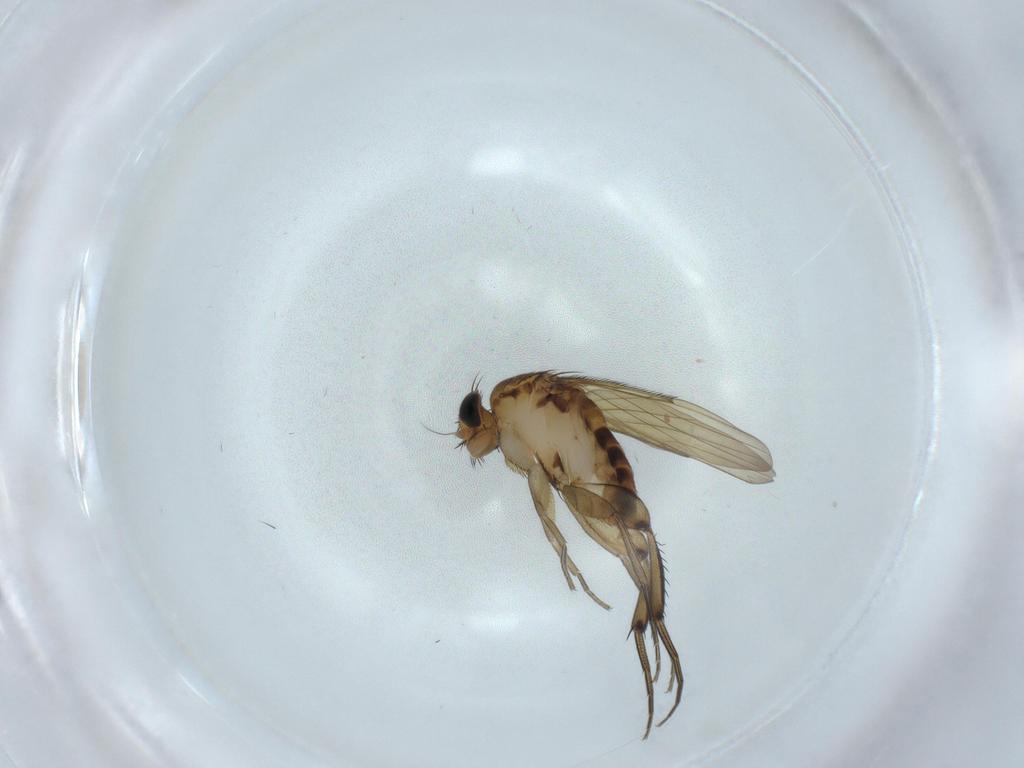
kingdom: Animalia
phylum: Arthropoda
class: Insecta
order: Diptera
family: Phoridae
